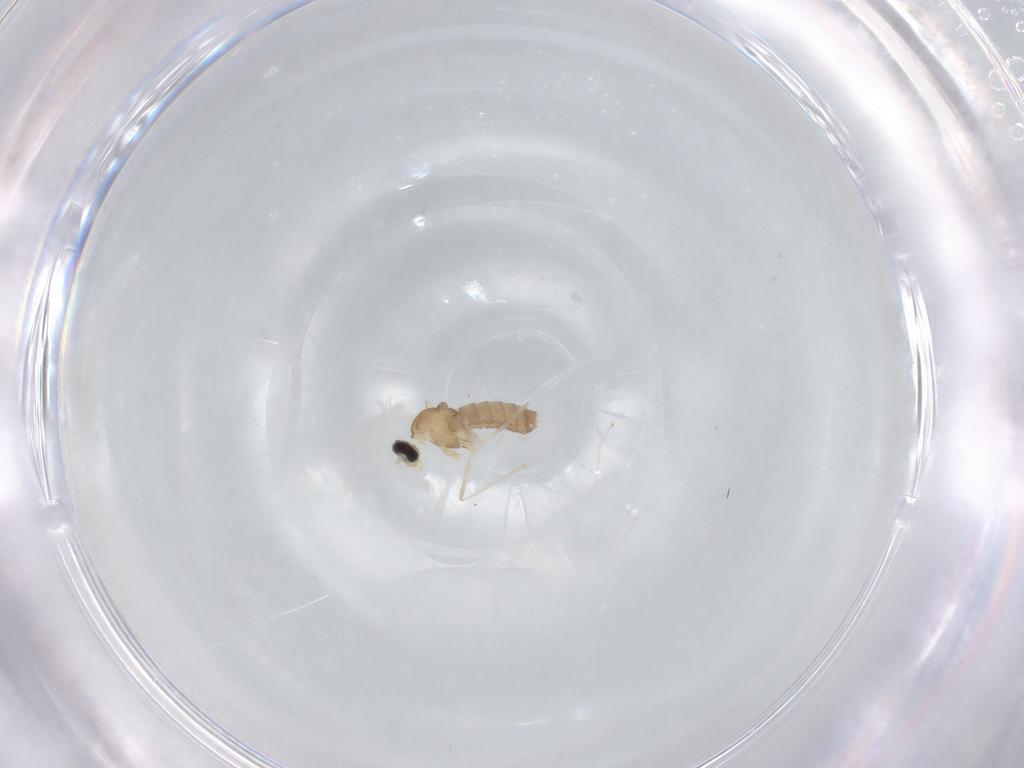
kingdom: Animalia
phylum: Arthropoda
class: Insecta
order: Diptera
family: Cecidomyiidae
